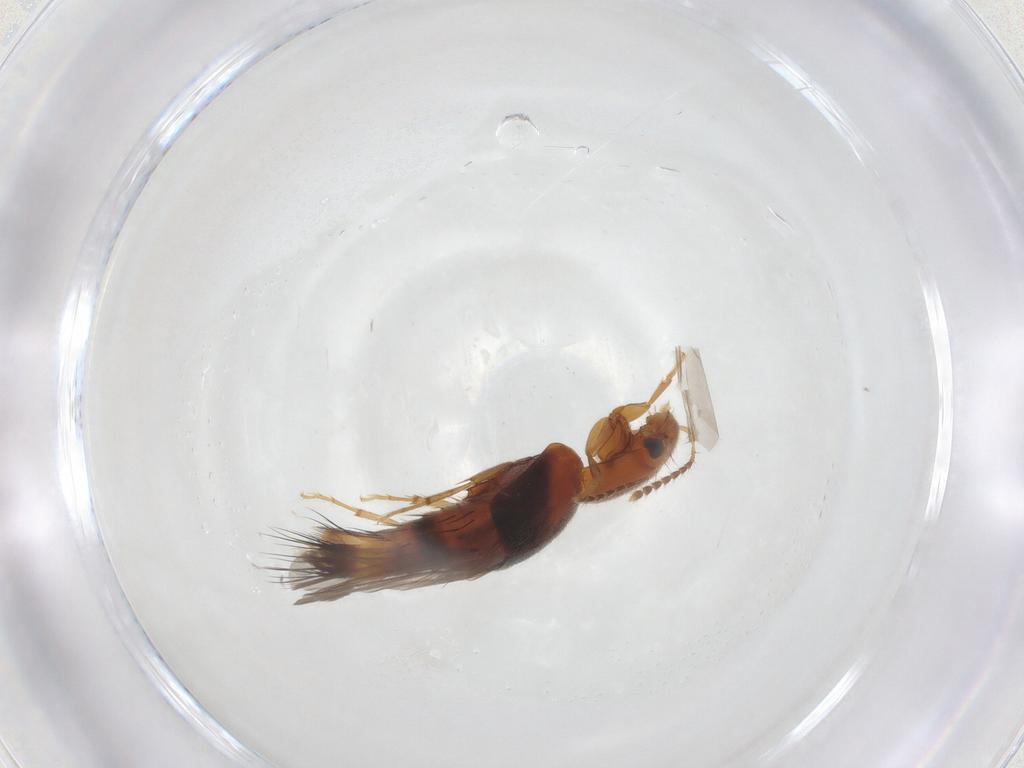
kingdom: Animalia
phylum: Arthropoda
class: Insecta
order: Coleoptera
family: Staphylinidae
